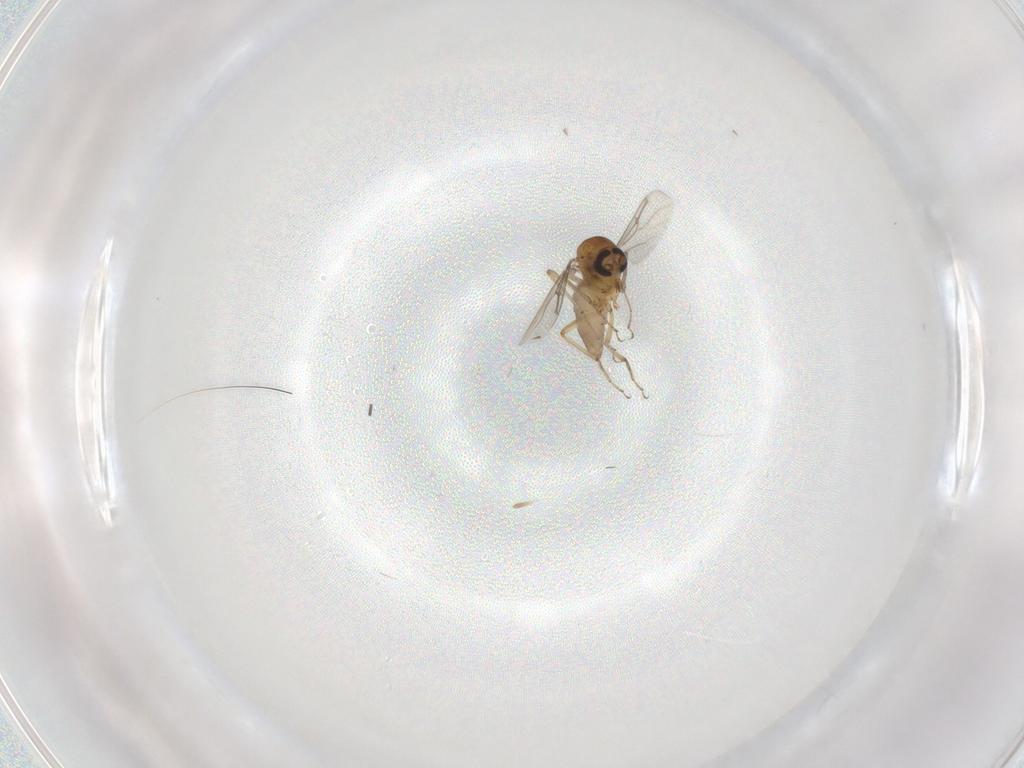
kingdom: Animalia
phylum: Arthropoda
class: Insecta
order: Diptera
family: Ceratopogonidae
